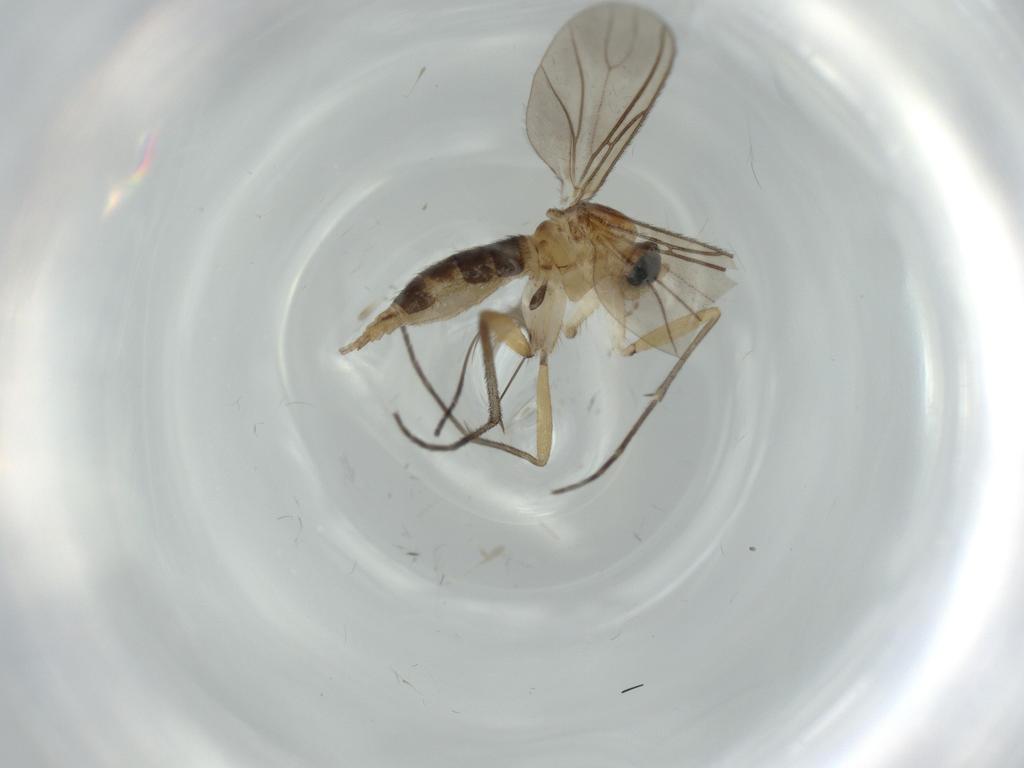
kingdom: Animalia
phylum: Arthropoda
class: Insecta
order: Diptera
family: Sciaridae
